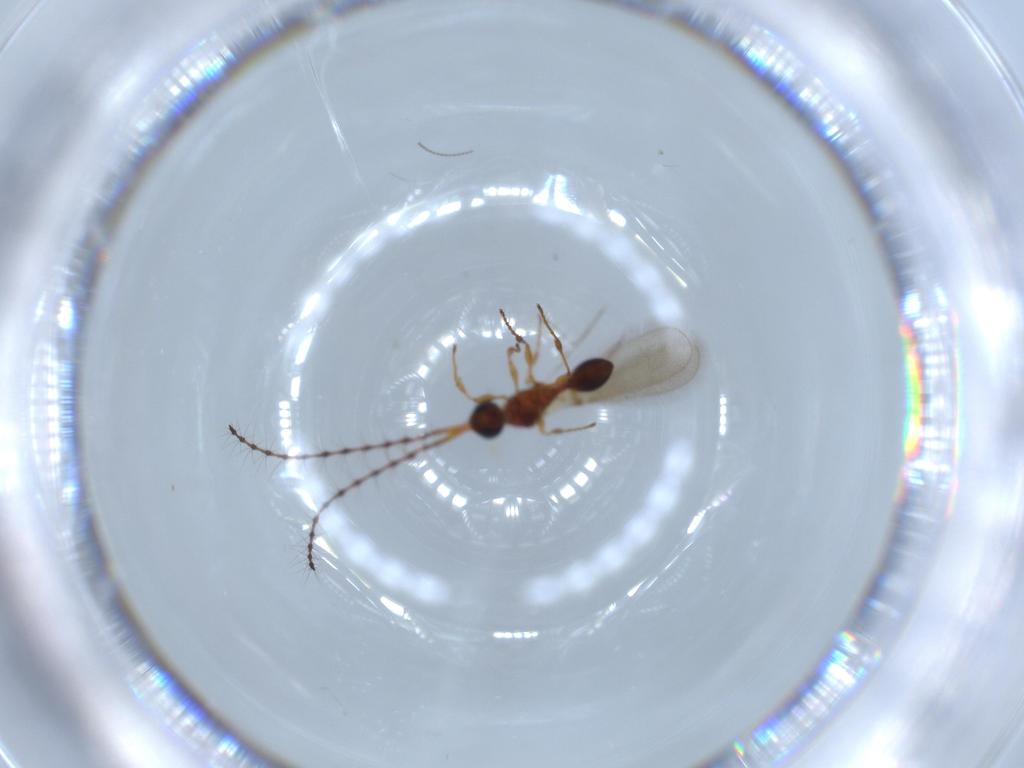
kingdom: Animalia
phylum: Arthropoda
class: Insecta
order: Hymenoptera
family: Diapriidae
